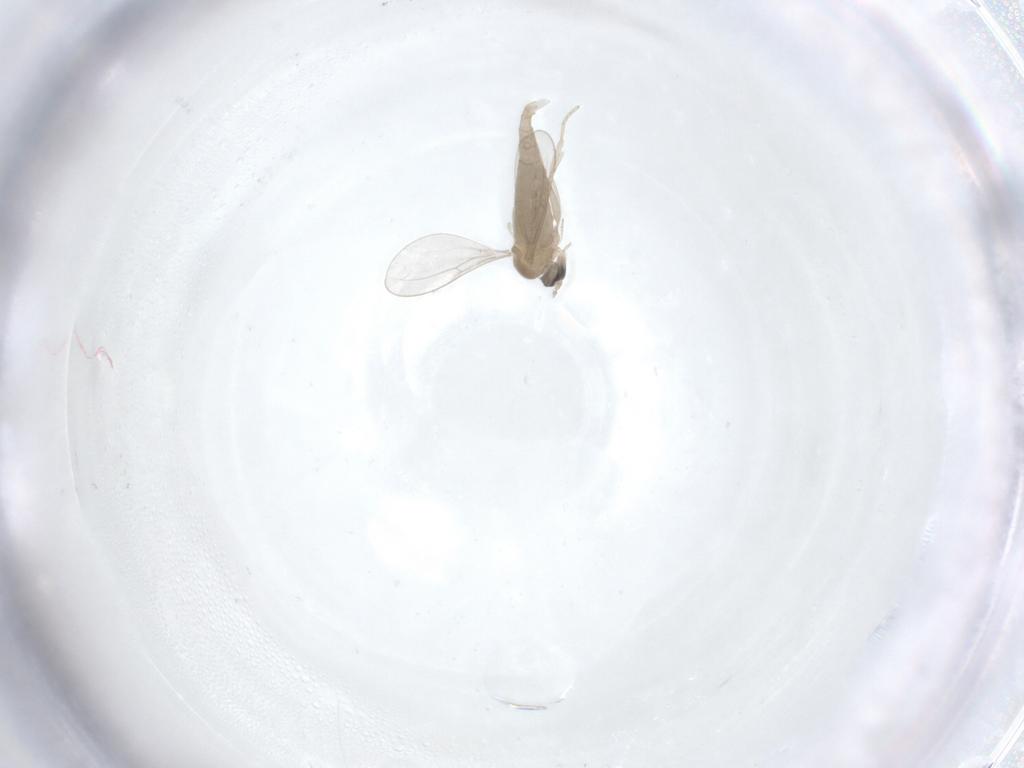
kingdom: Animalia
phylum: Arthropoda
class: Insecta
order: Diptera
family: Cecidomyiidae
